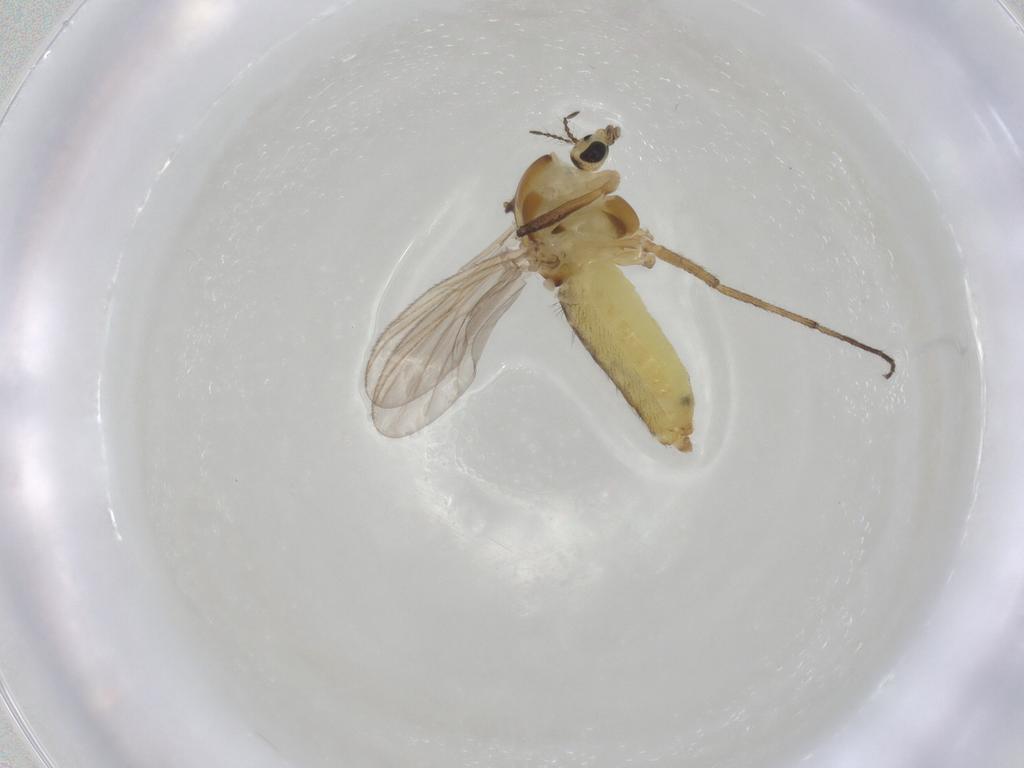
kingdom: Animalia
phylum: Arthropoda
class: Insecta
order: Diptera
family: Chironomidae
